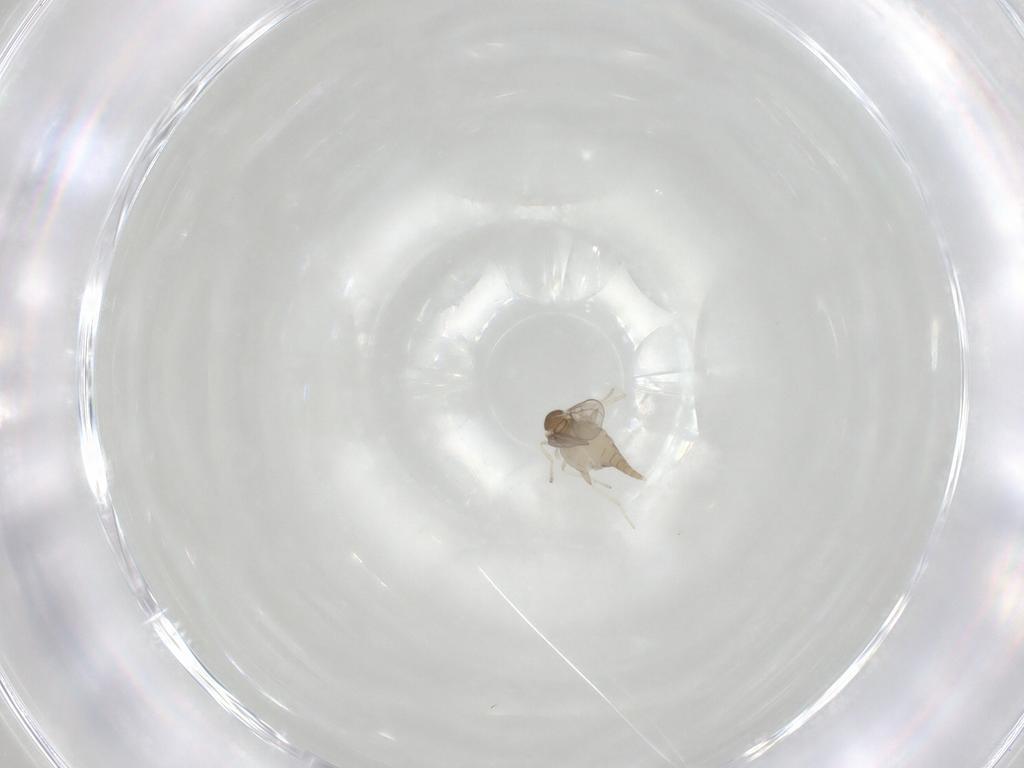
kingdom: Animalia
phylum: Arthropoda
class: Insecta
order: Diptera
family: Cecidomyiidae
